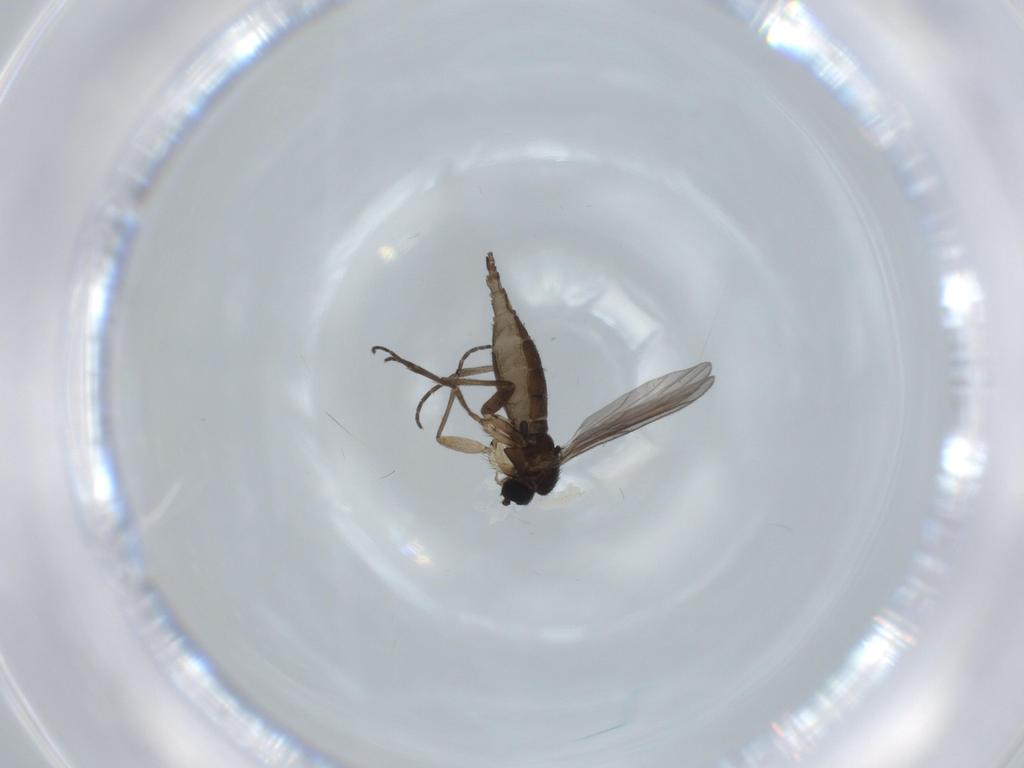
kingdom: Animalia
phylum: Arthropoda
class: Insecta
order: Diptera
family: Sciaridae
